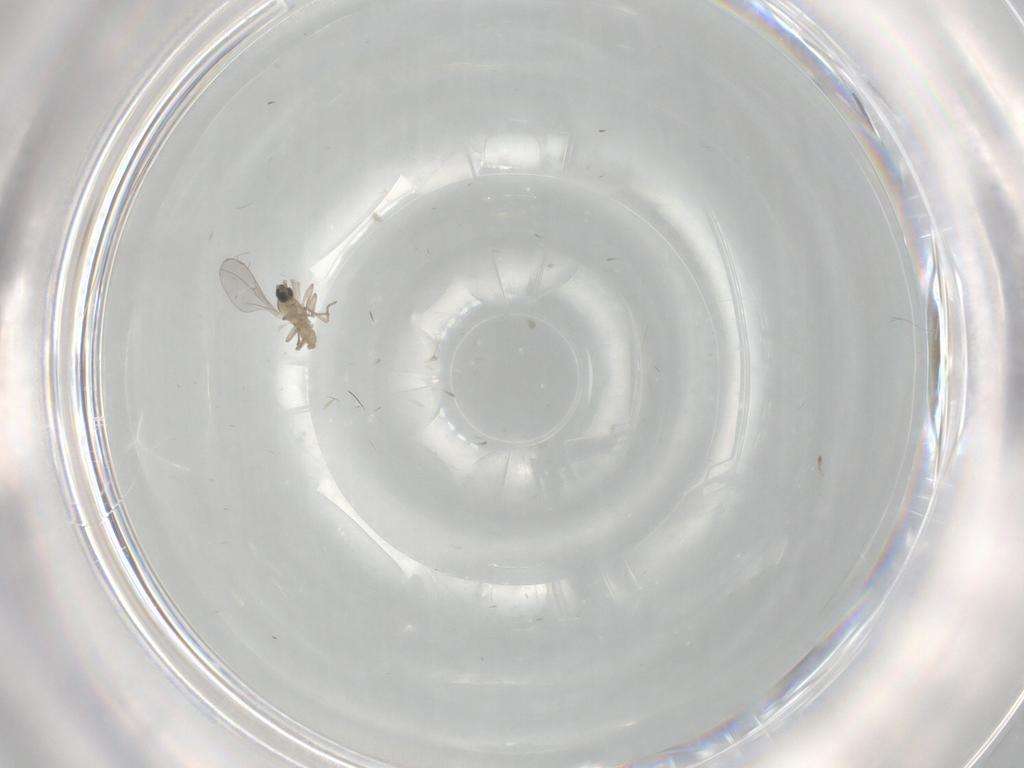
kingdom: Animalia
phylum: Arthropoda
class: Insecta
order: Diptera
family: Cecidomyiidae
